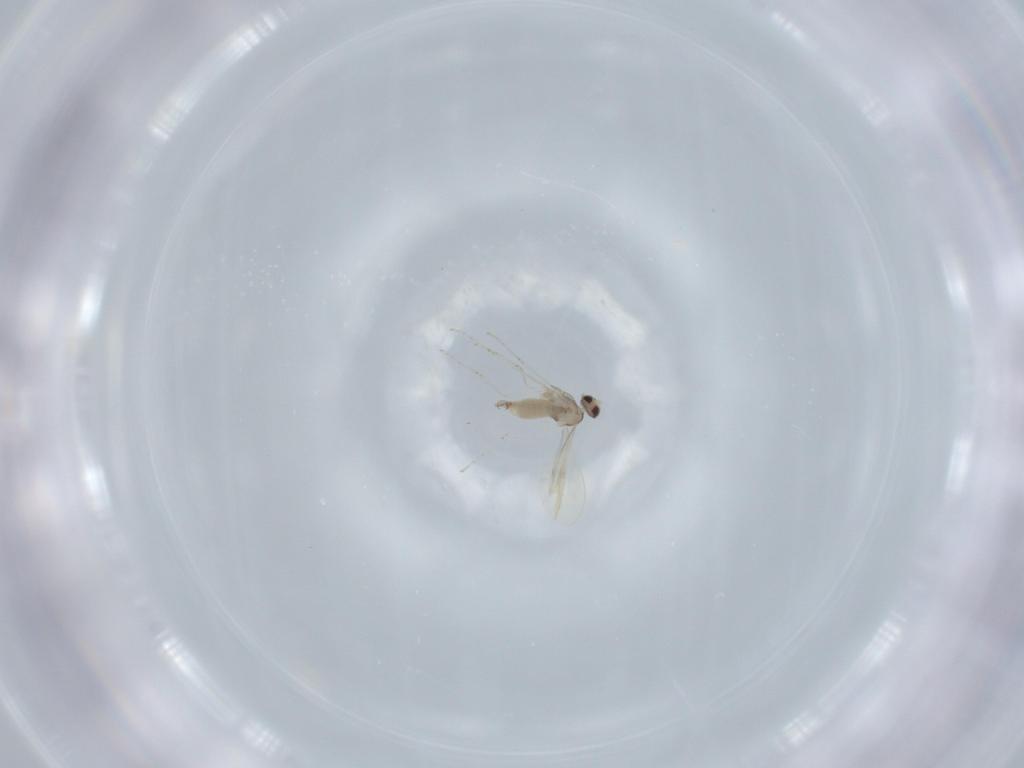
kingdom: Animalia
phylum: Arthropoda
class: Insecta
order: Diptera
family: Cecidomyiidae
